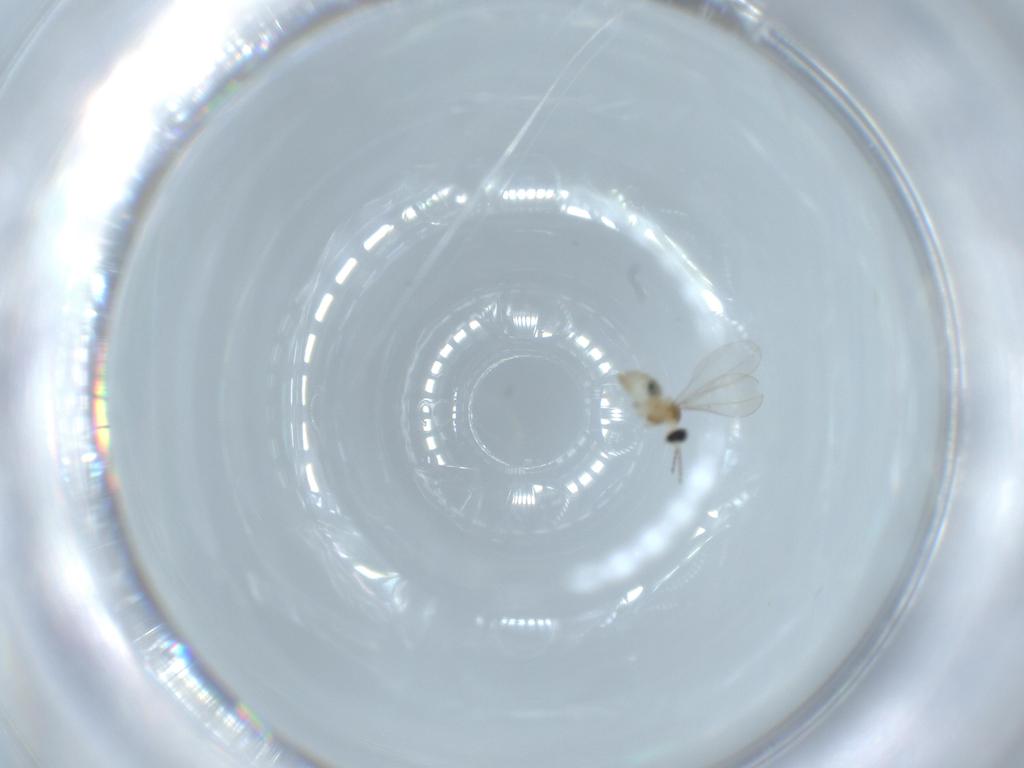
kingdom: Animalia
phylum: Arthropoda
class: Insecta
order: Diptera
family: Cecidomyiidae
